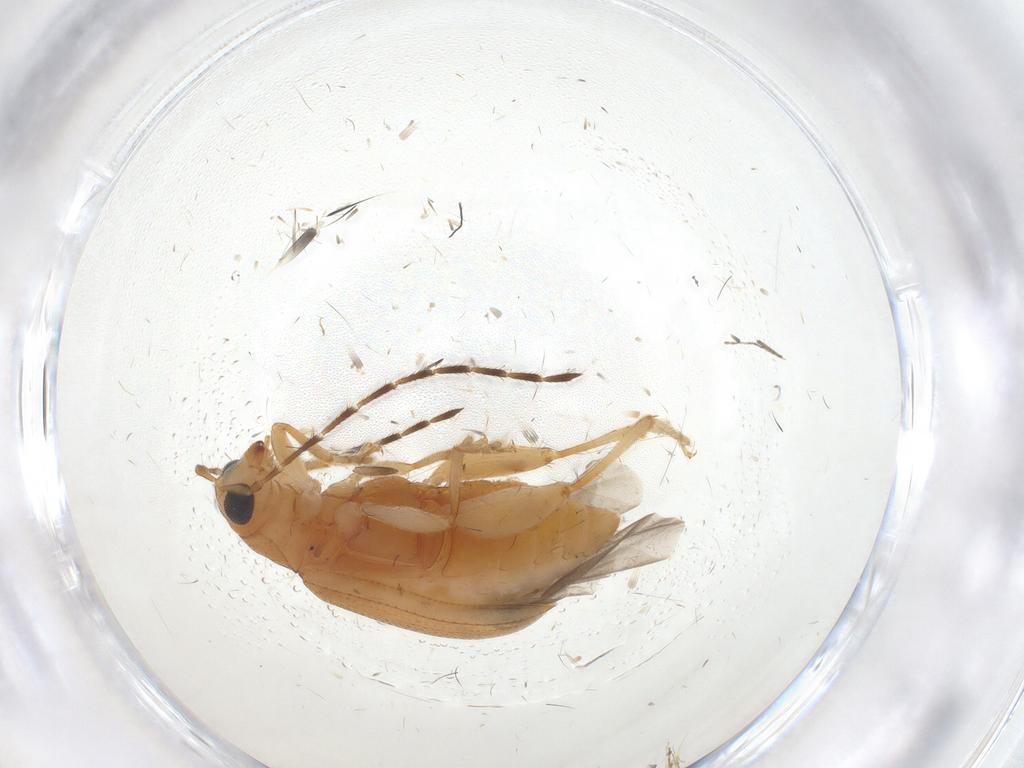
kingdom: Animalia
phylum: Arthropoda
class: Insecta
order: Coleoptera
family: Chrysomelidae
